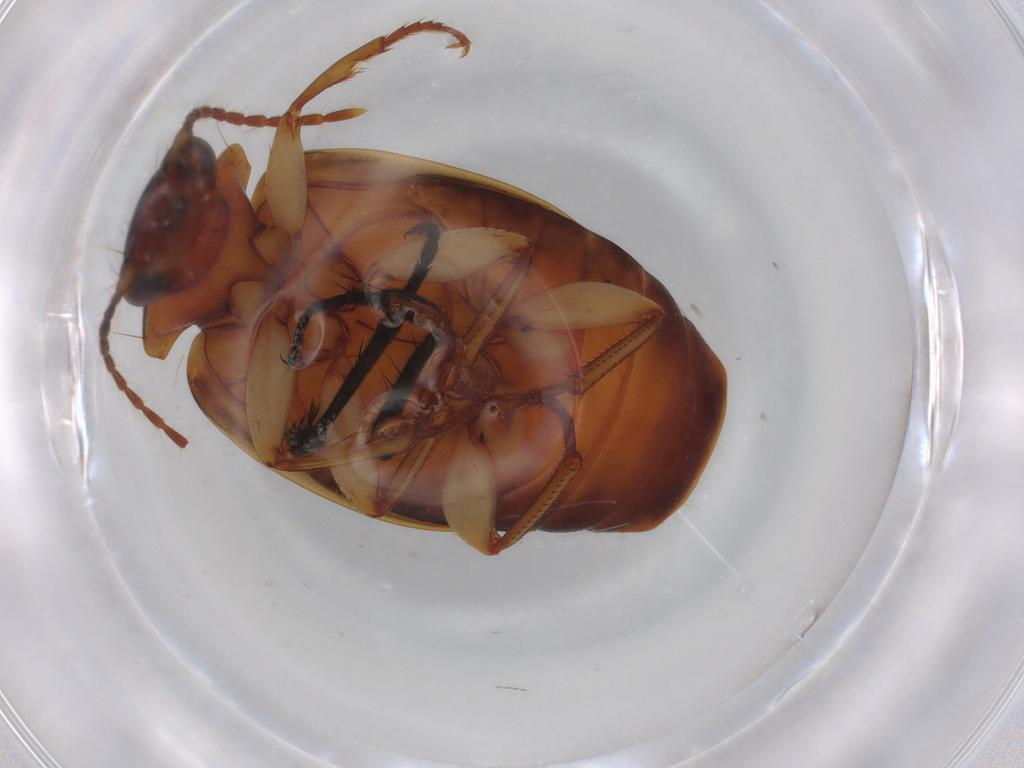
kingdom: Animalia
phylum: Arthropoda
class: Insecta
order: Coleoptera
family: Carabidae
